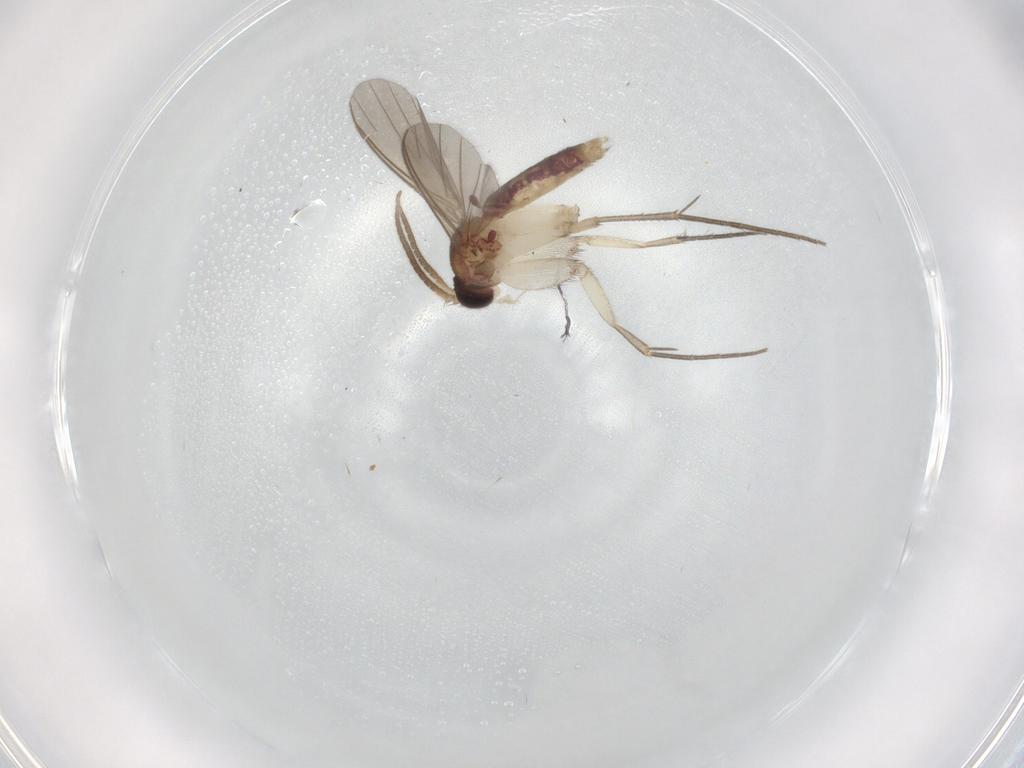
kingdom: Animalia
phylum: Arthropoda
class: Insecta
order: Diptera
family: Mycetophilidae
